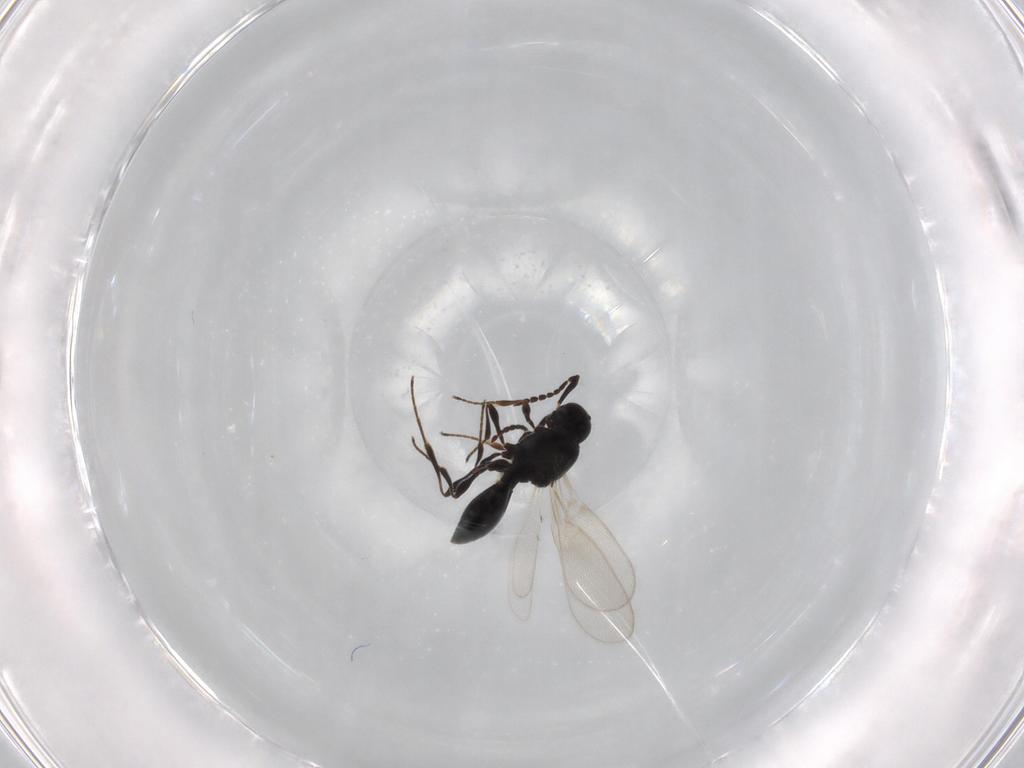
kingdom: Animalia
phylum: Arthropoda
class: Insecta
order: Diptera
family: Mythicomyiidae
